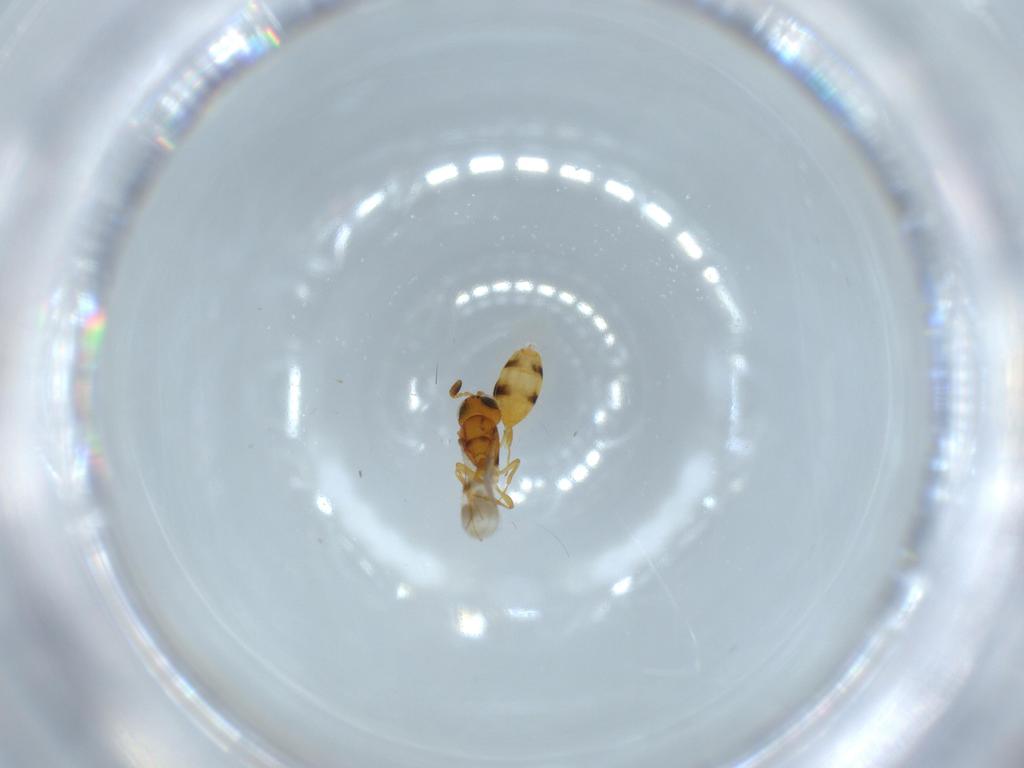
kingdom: Animalia
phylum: Arthropoda
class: Insecta
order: Hymenoptera
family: Scelionidae
